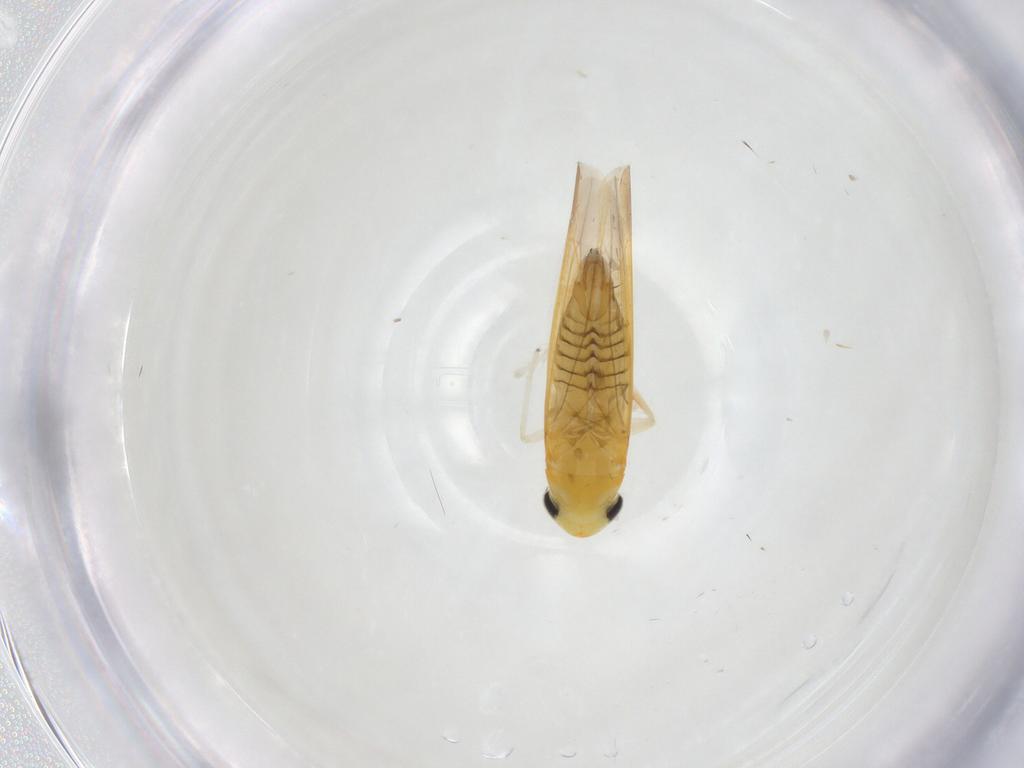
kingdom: Animalia
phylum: Arthropoda
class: Insecta
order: Hemiptera
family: Cicadellidae
